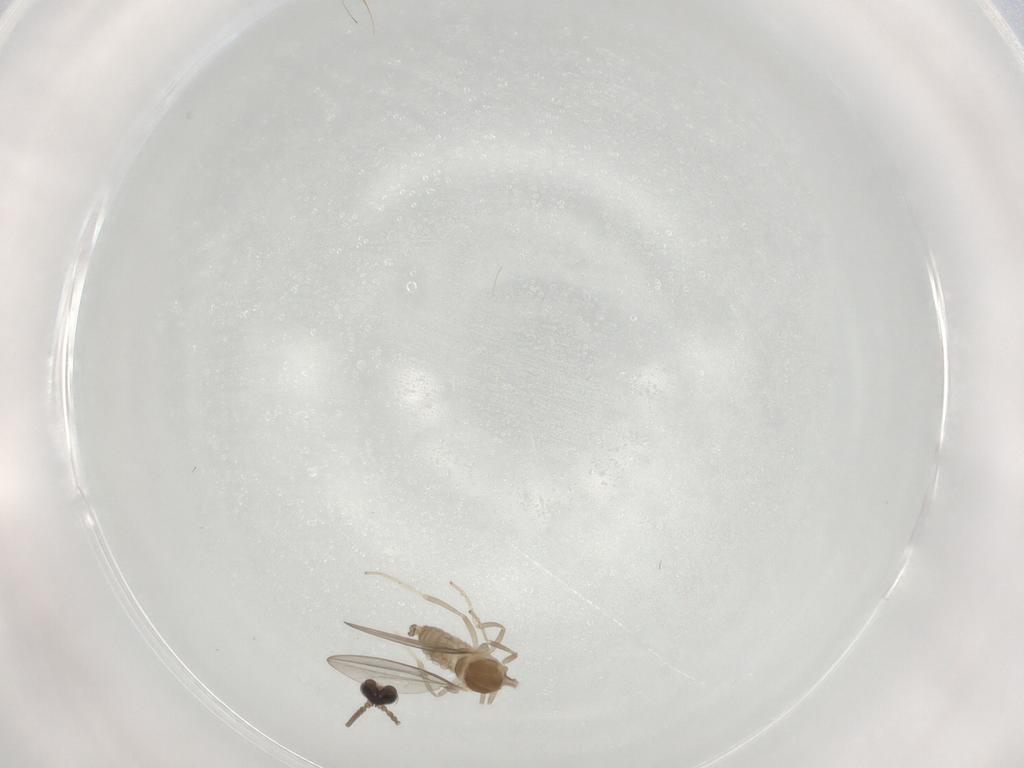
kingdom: Animalia
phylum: Arthropoda
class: Insecta
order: Diptera
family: Cecidomyiidae
